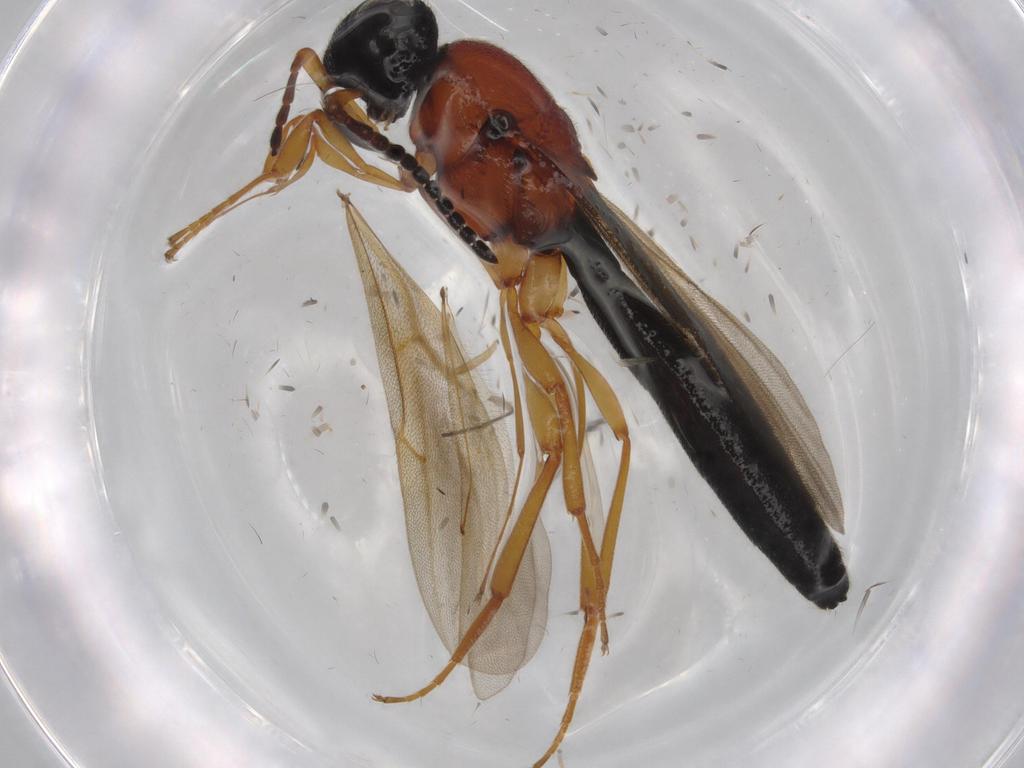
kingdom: Animalia
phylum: Arthropoda
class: Insecta
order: Hymenoptera
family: Scelionidae
